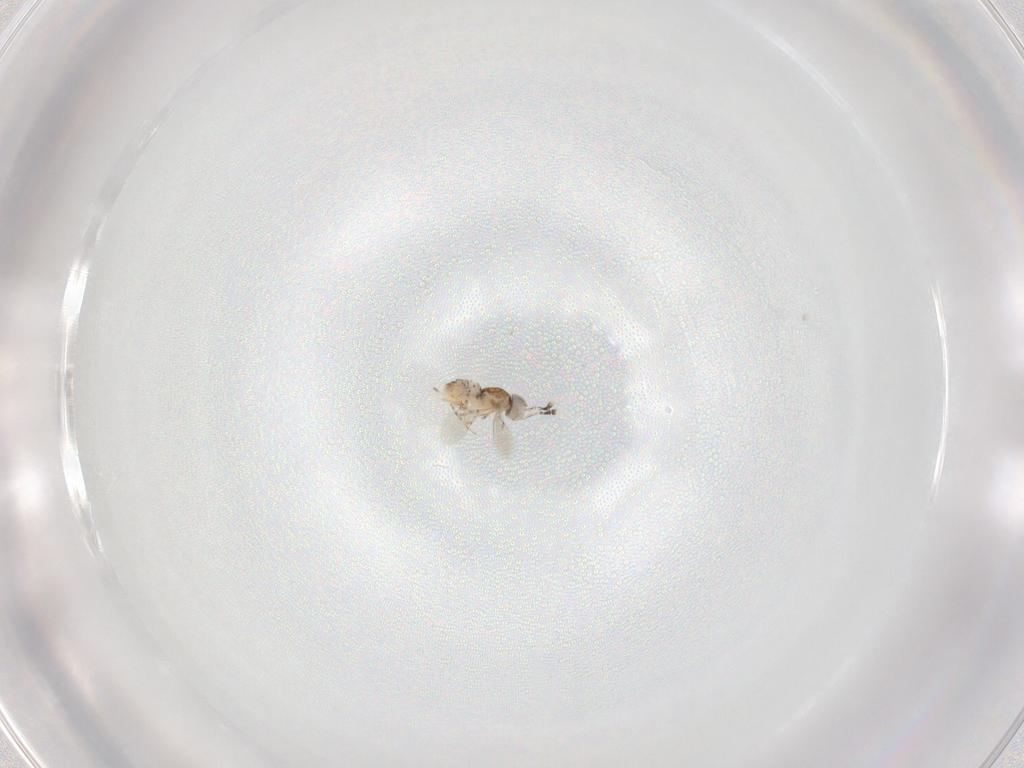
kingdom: Animalia
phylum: Arthropoda
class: Insecta
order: Hymenoptera
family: Encyrtidae
